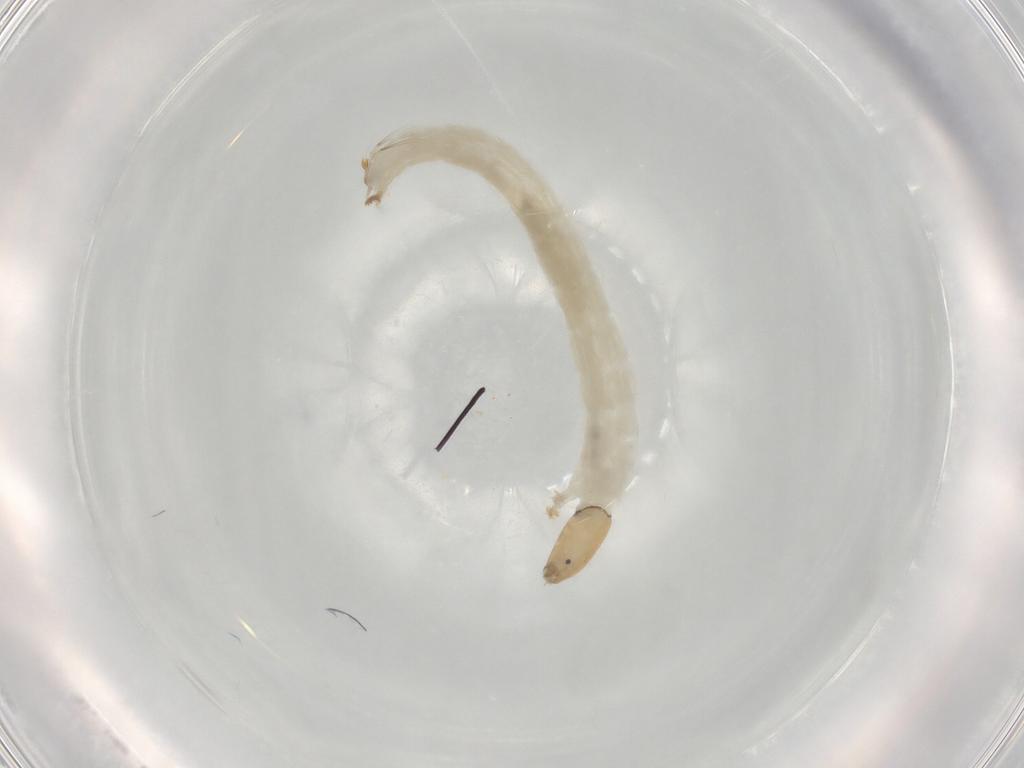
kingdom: Animalia
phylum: Arthropoda
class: Insecta
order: Diptera
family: Chironomidae
